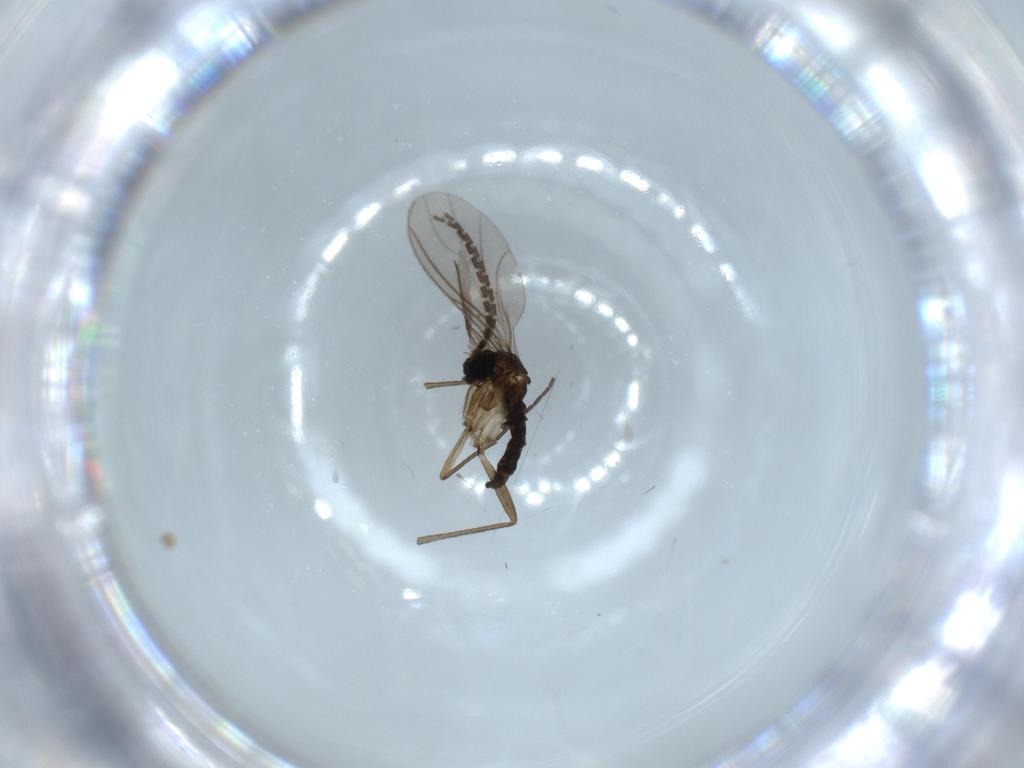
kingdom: Animalia
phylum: Arthropoda
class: Insecta
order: Diptera
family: Sciaridae
